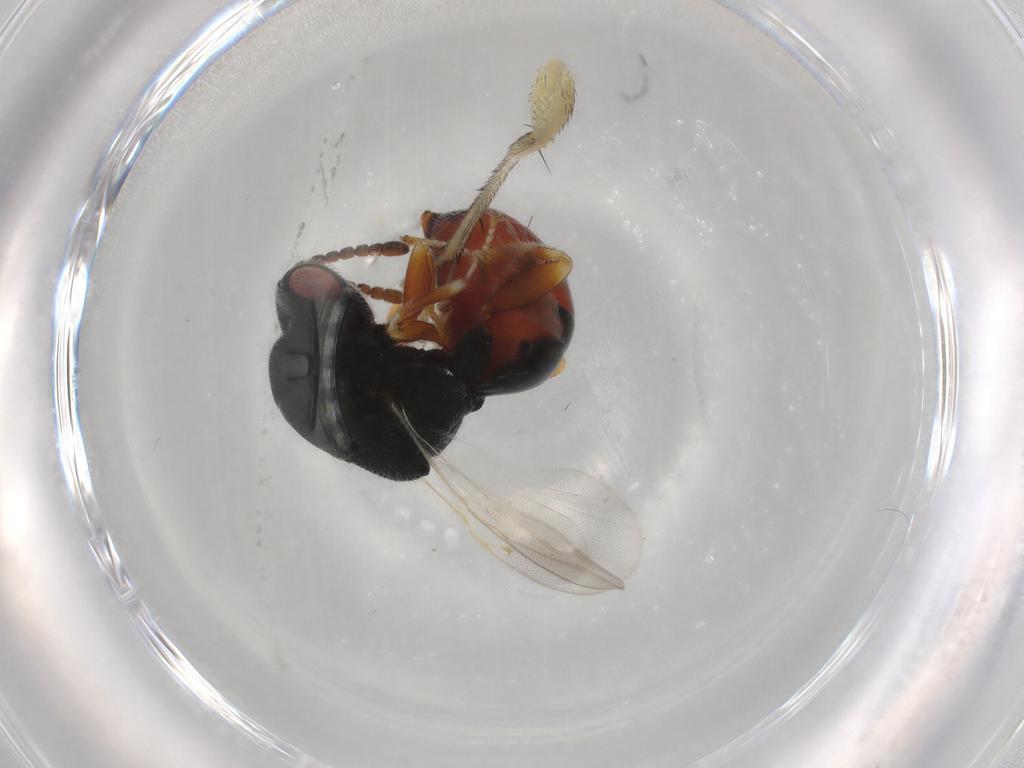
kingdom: Animalia
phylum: Arthropoda
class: Insecta
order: Hymenoptera
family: Eurytomidae
